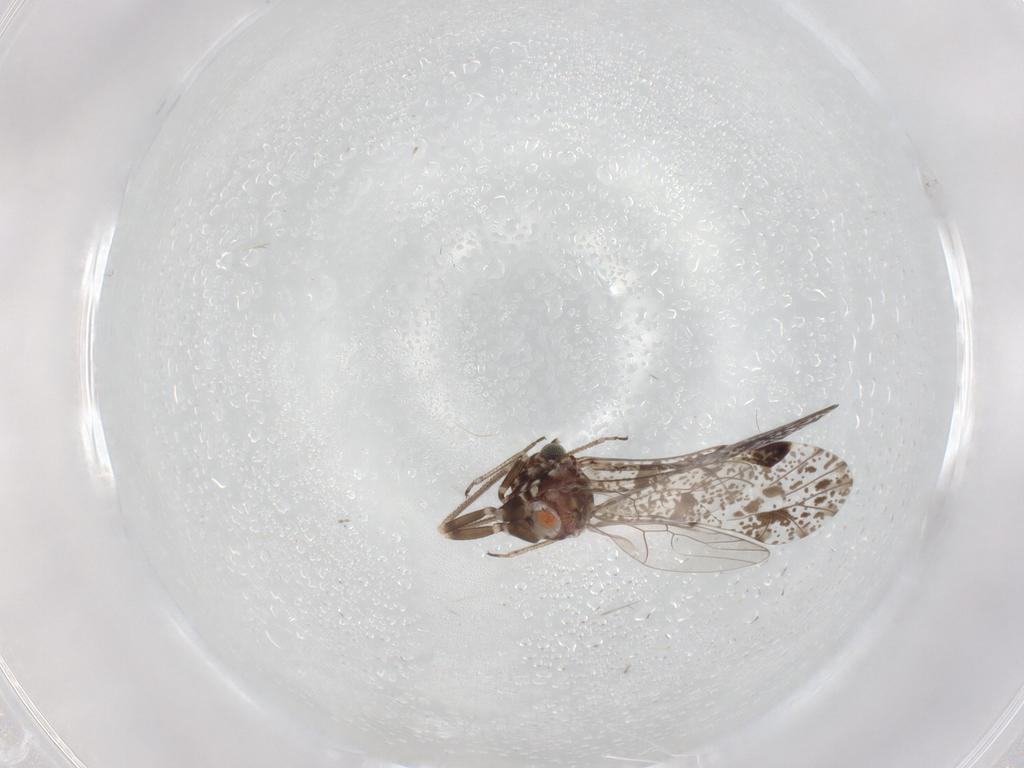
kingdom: Animalia
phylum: Arthropoda
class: Insecta
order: Psocodea
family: Psocidae
